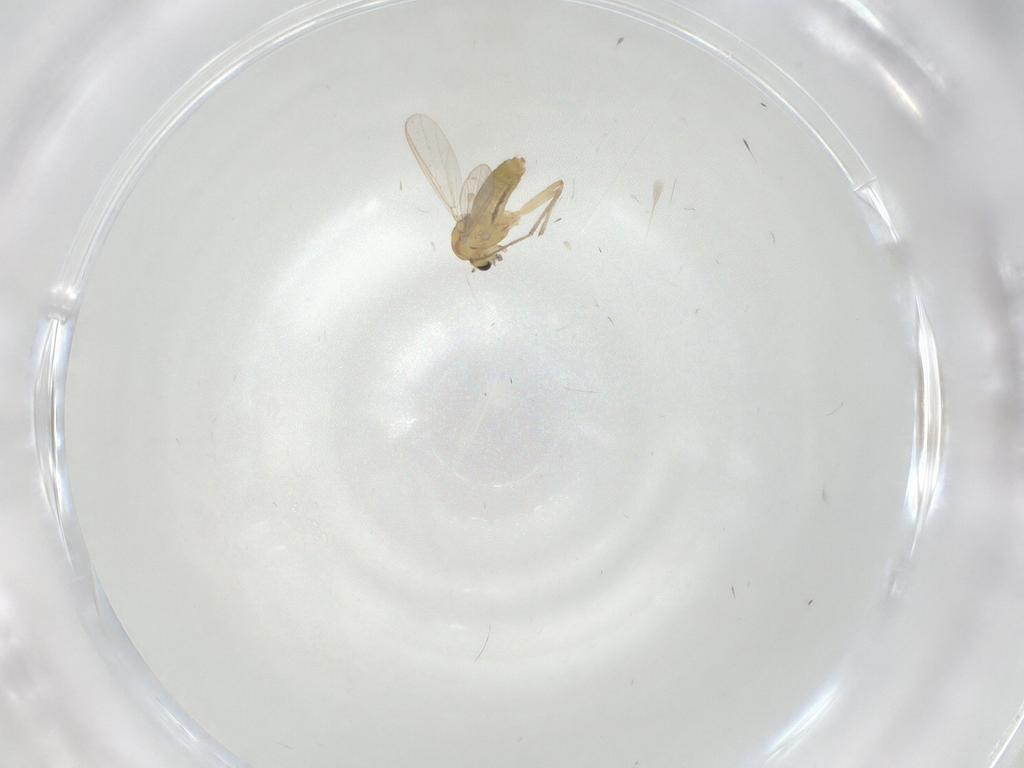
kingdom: Animalia
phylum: Arthropoda
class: Insecta
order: Diptera
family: Chironomidae
